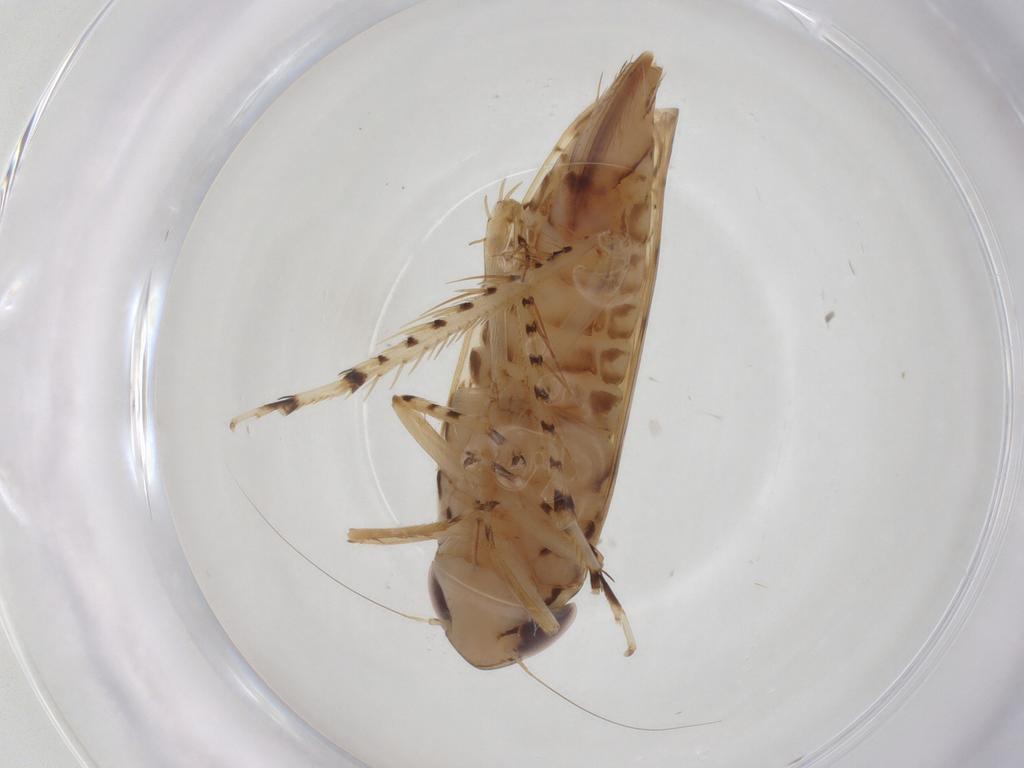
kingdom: Animalia
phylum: Arthropoda
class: Insecta
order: Hemiptera
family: Cicadellidae
